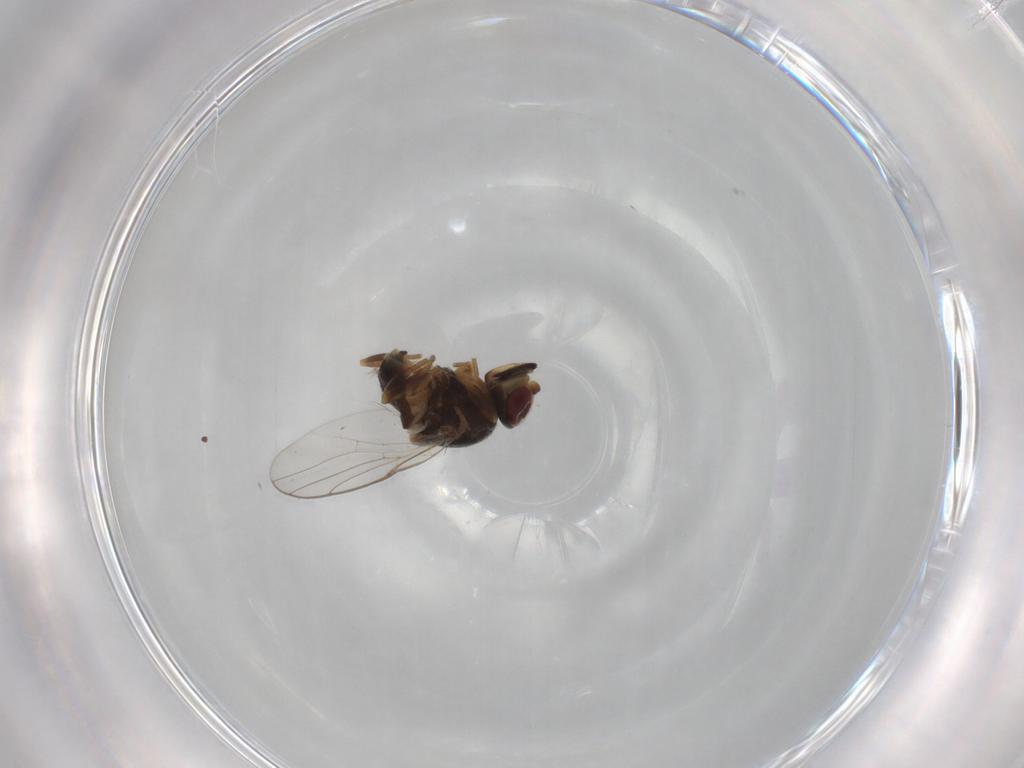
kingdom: Animalia
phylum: Arthropoda
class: Insecta
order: Diptera
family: Chloropidae
